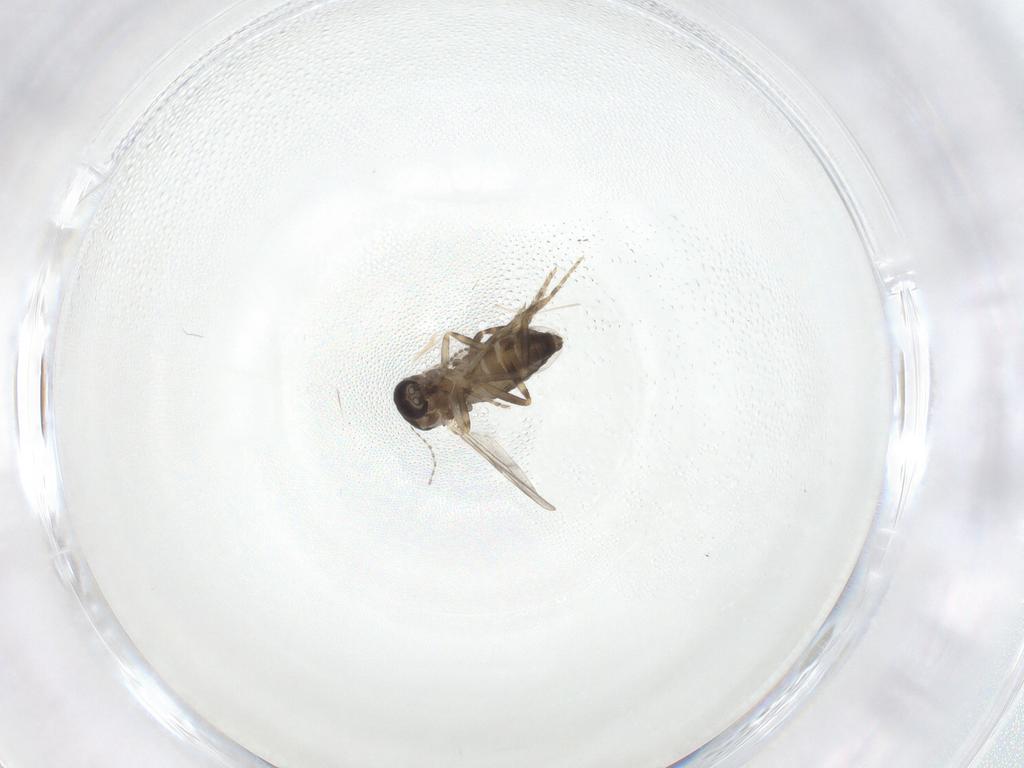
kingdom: Animalia
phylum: Arthropoda
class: Insecta
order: Diptera
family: Ceratopogonidae
